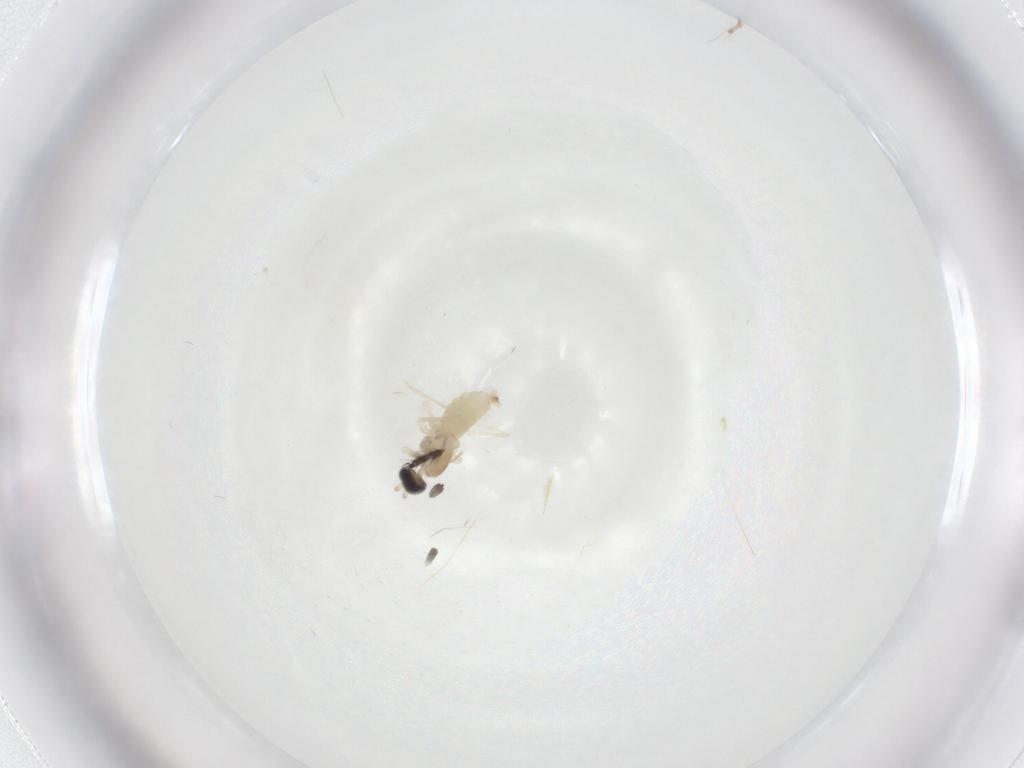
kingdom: Animalia
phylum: Arthropoda
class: Insecta
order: Diptera
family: Cecidomyiidae
